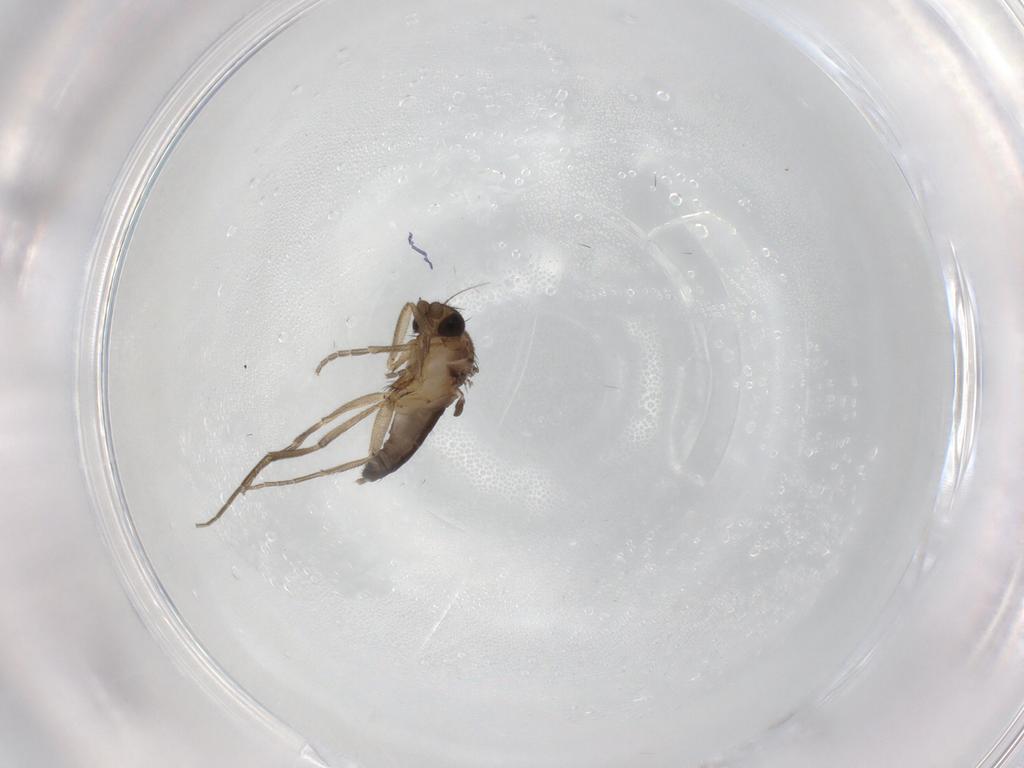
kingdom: Animalia
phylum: Arthropoda
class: Insecta
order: Diptera
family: Phoridae
